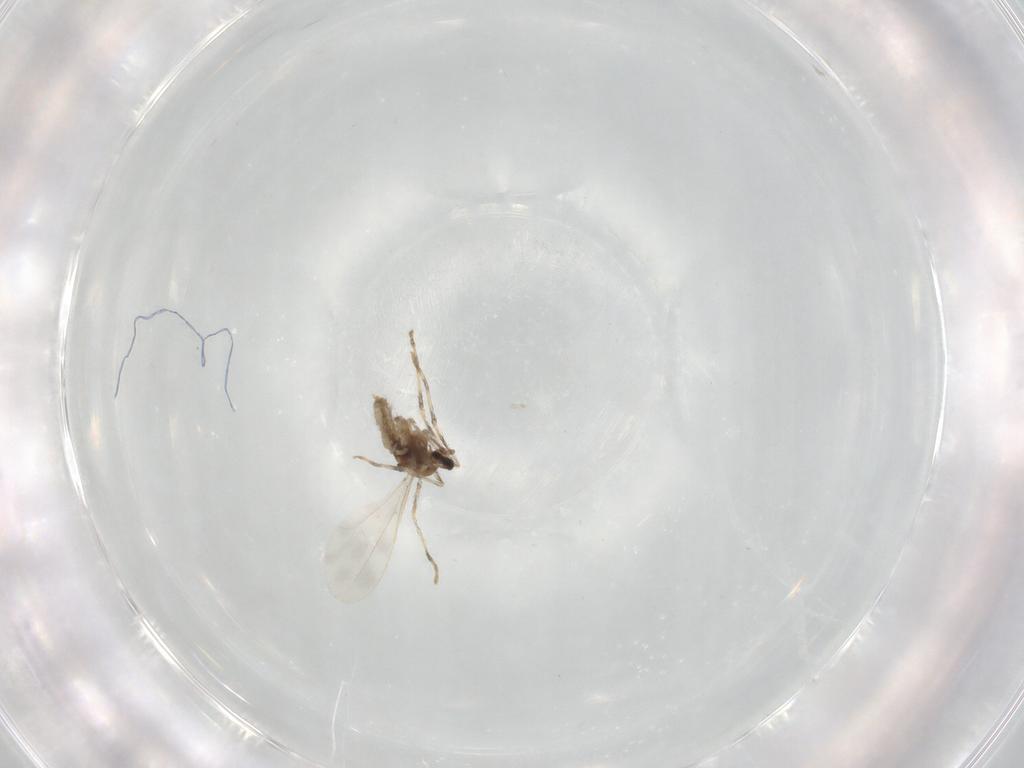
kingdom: Animalia
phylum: Arthropoda
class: Insecta
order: Diptera
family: Cecidomyiidae
